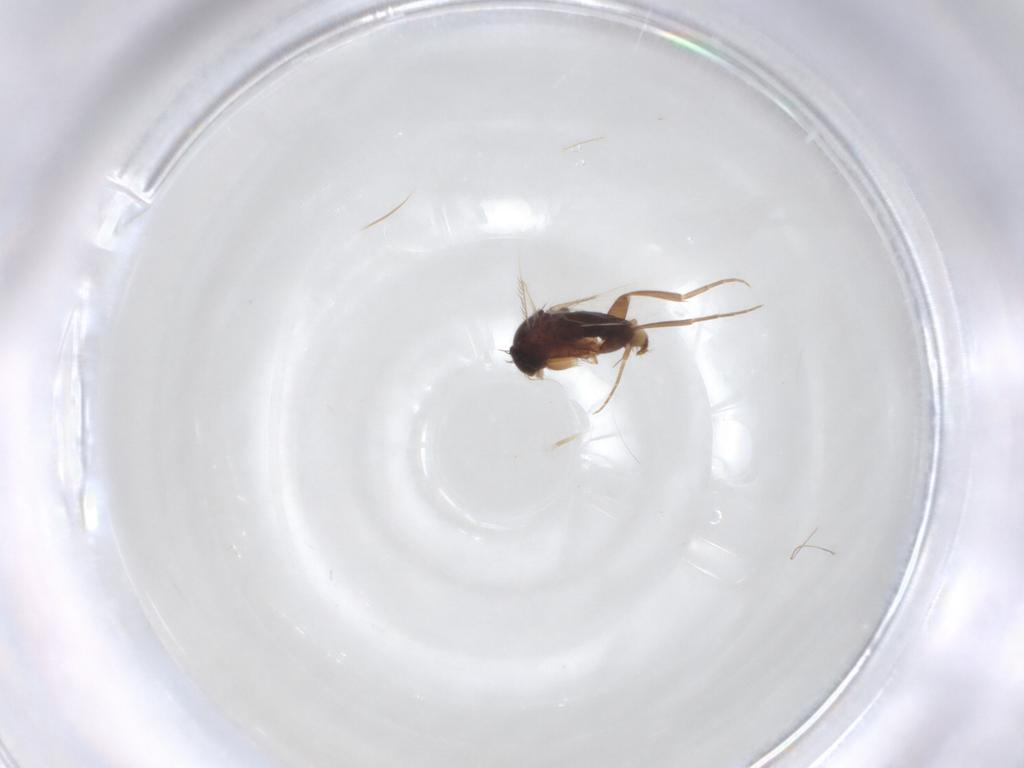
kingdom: Animalia
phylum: Arthropoda
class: Insecta
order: Diptera
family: Phoridae
